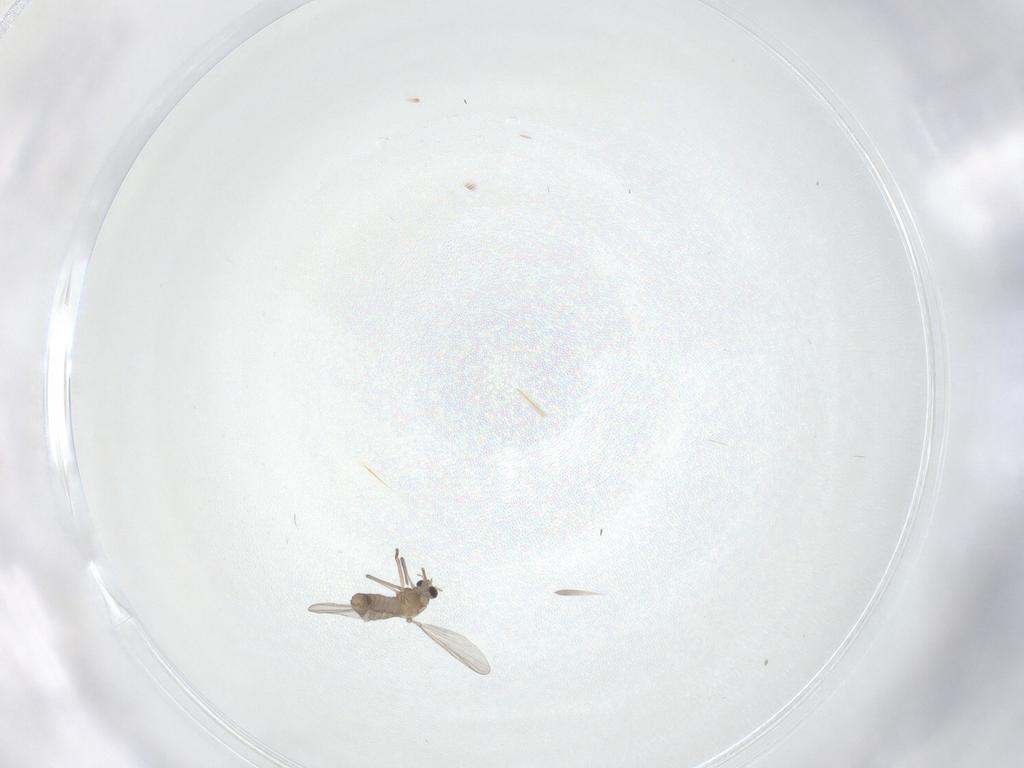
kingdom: Animalia
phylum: Arthropoda
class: Insecta
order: Diptera
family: Chironomidae
